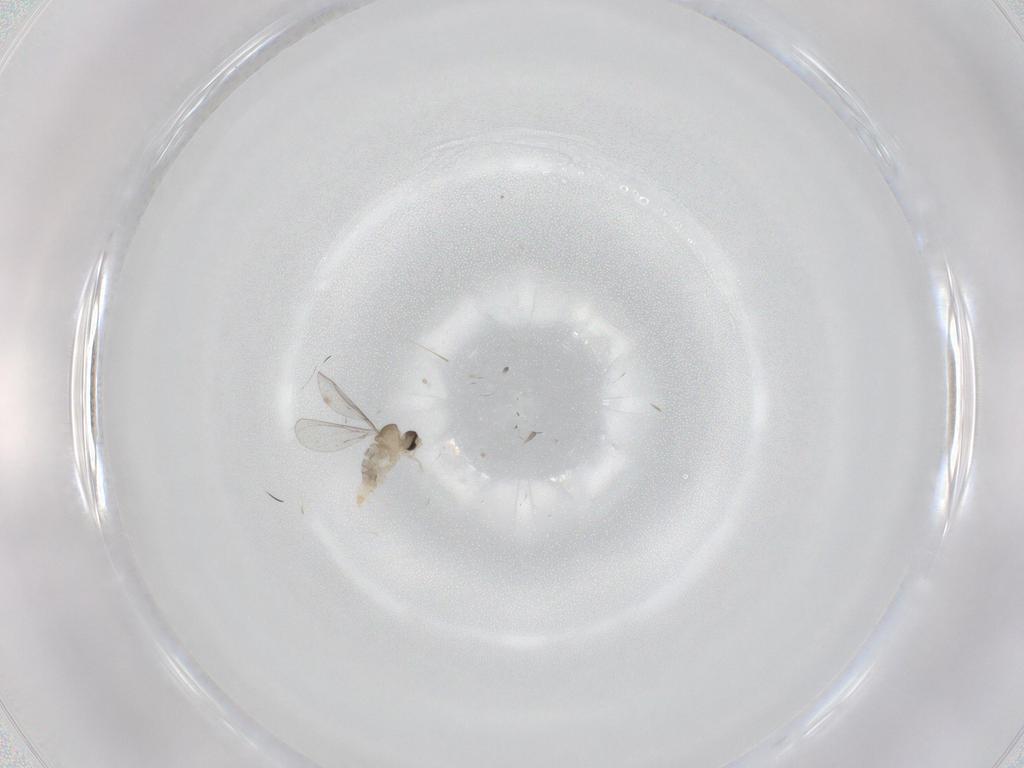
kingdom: Animalia
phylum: Arthropoda
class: Insecta
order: Diptera
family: Cecidomyiidae
